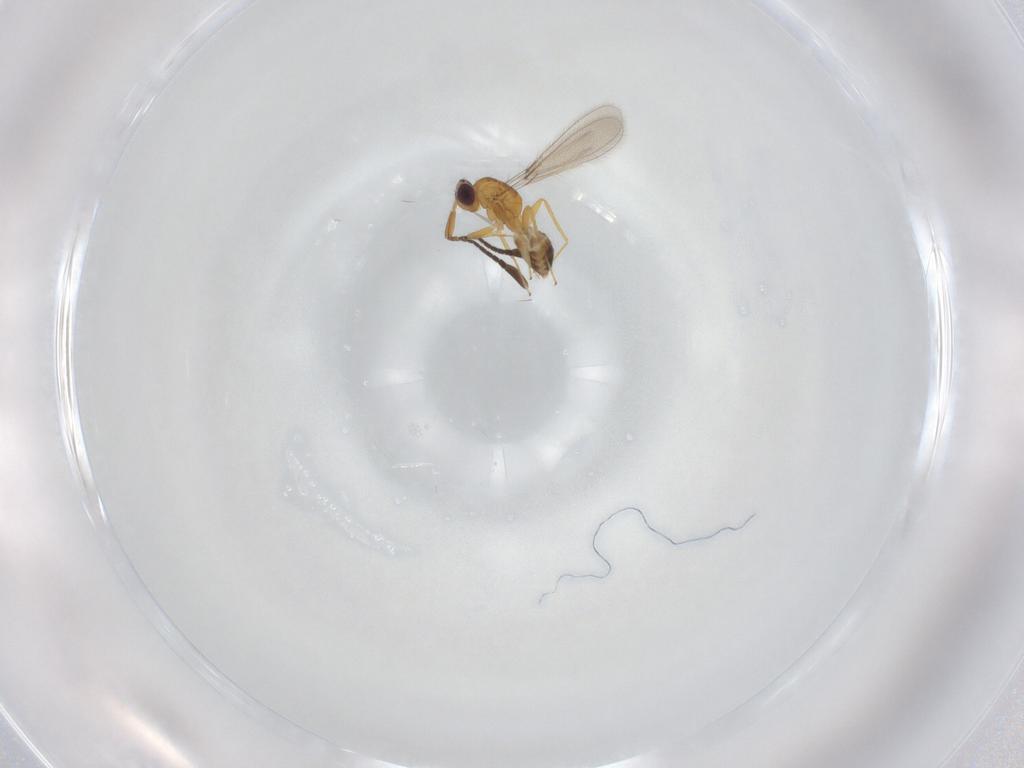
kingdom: Animalia
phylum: Arthropoda
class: Insecta
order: Hymenoptera
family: Mymaridae
